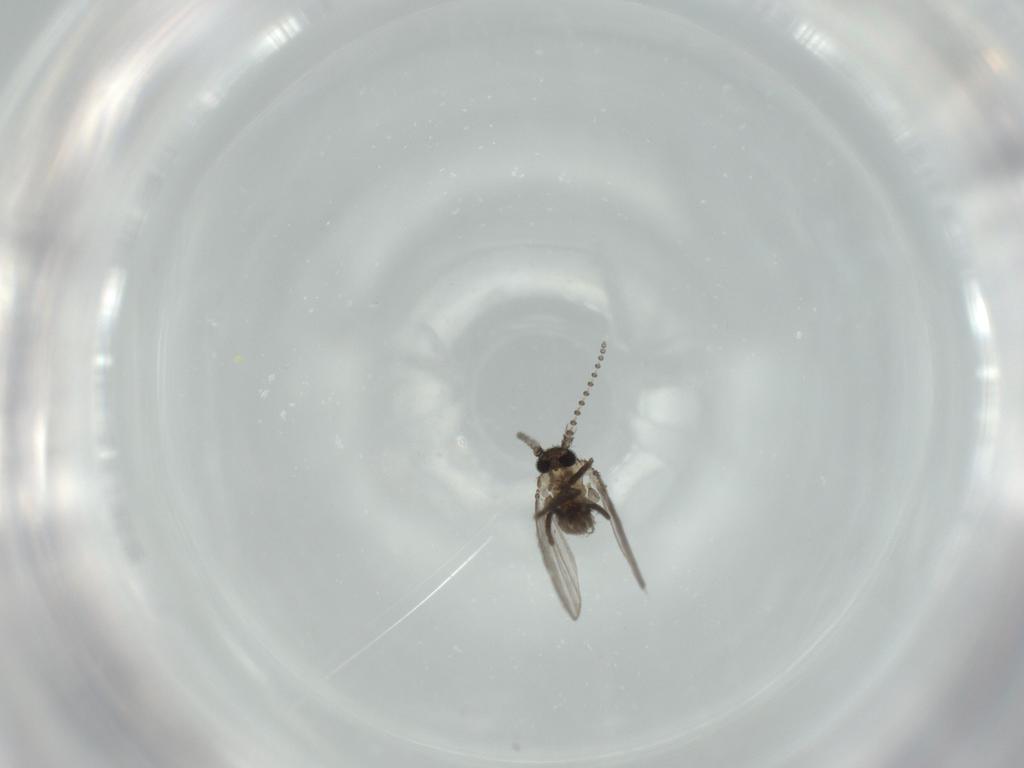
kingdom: Animalia
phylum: Arthropoda
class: Insecta
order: Diptera
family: Psychodidae
